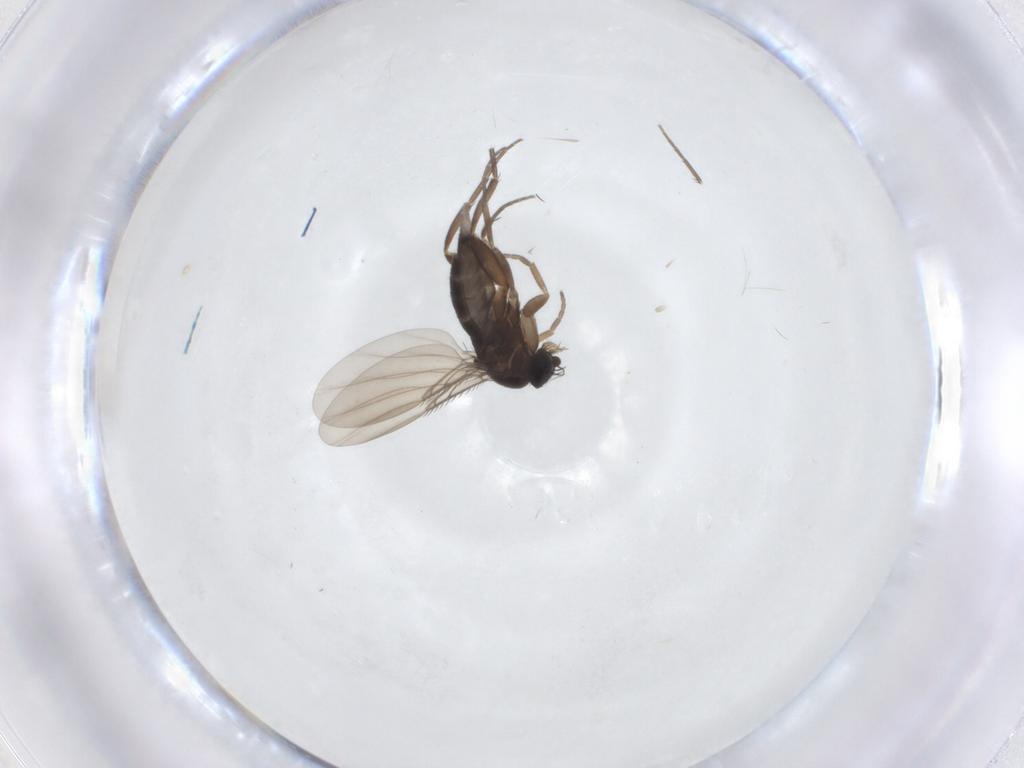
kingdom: Animalia
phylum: Arthropoda
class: Insecta
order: Diptera
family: Phoridae
